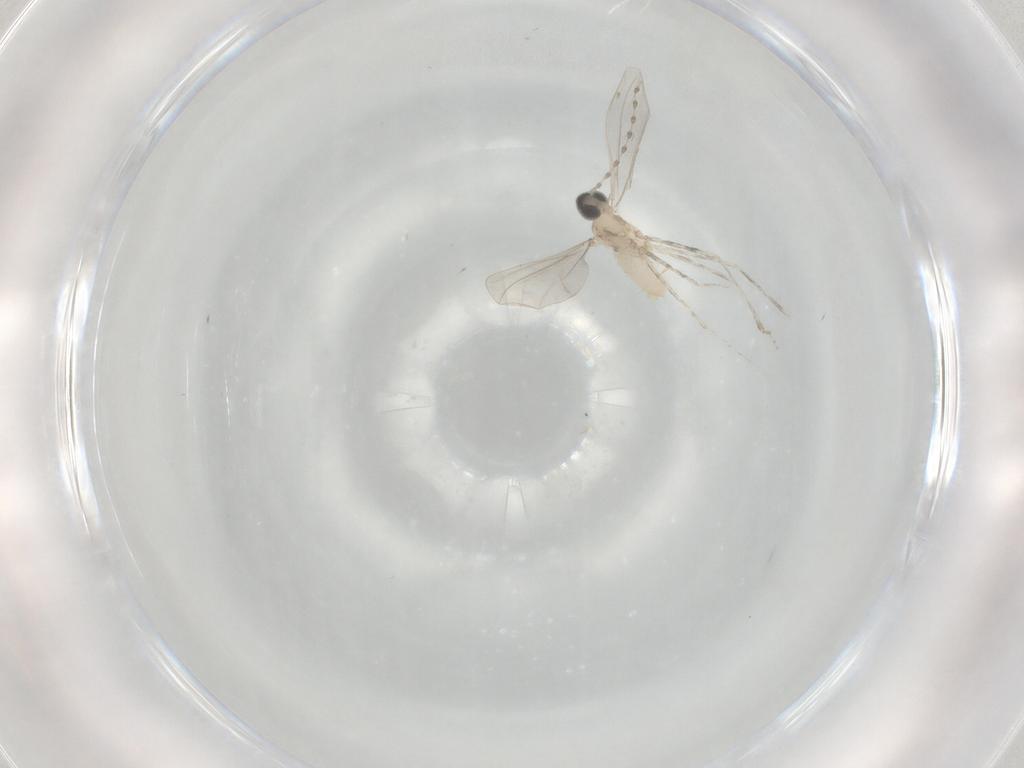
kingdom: Animalia
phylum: Arthropoda
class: Insecta
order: Diptera
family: Cecidomyiidae
